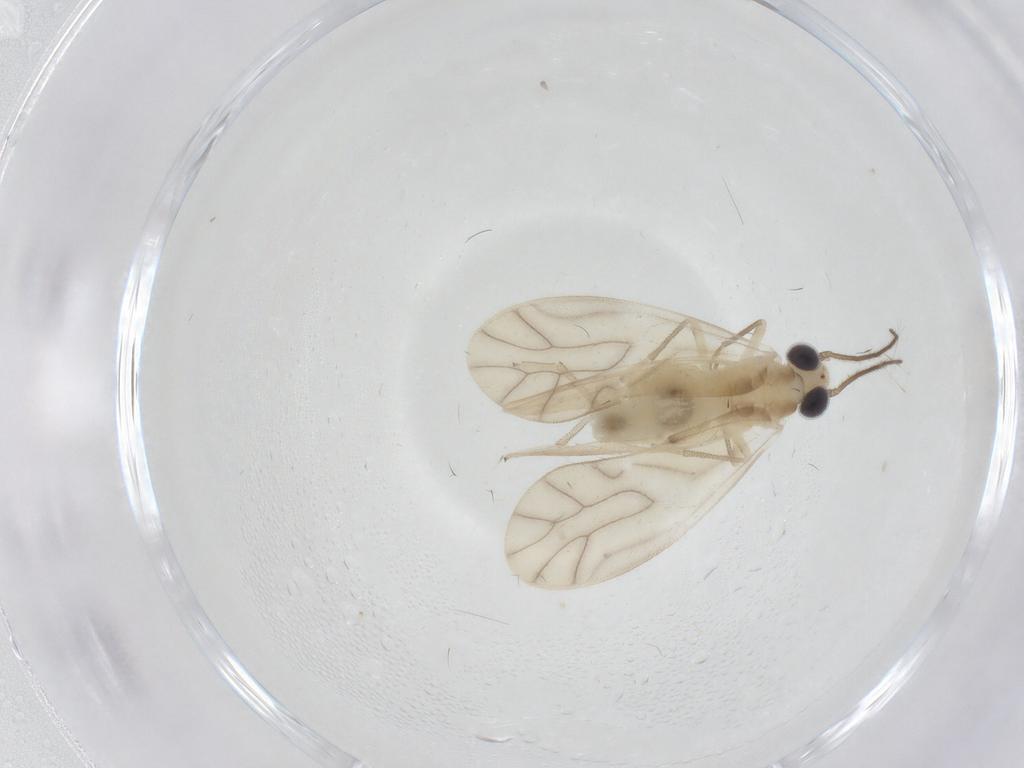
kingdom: Animalia
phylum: Arthropoda
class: Insecta
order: Psocodea
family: Caeciliusidae
